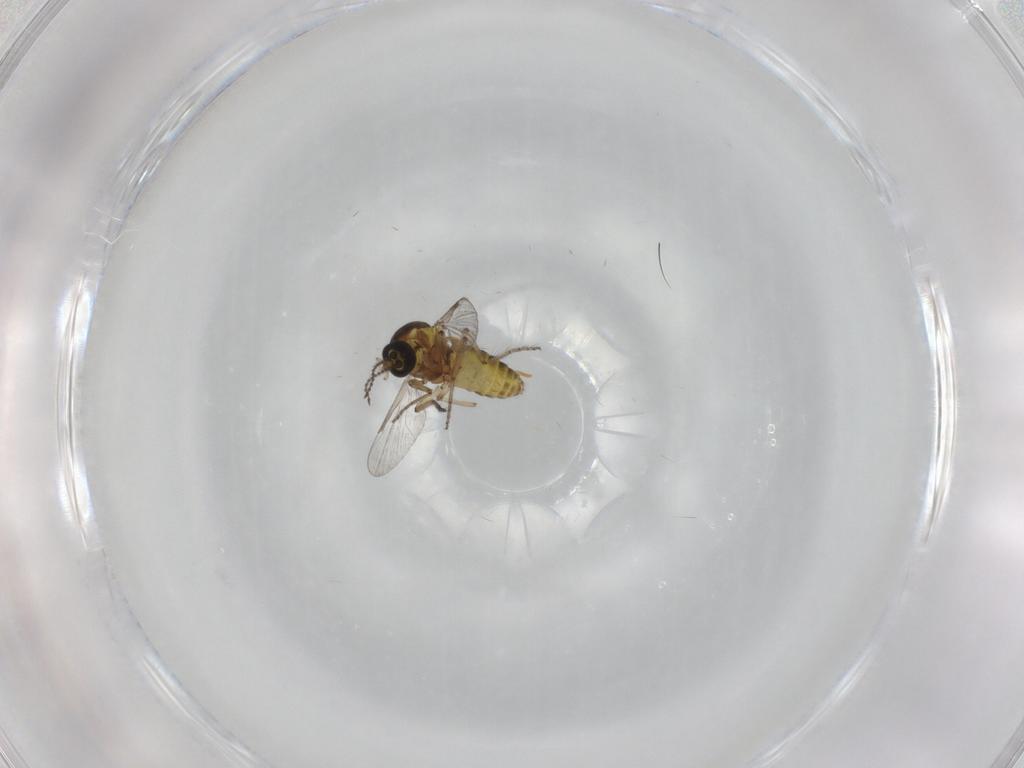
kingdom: Animalia
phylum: Arthropoda
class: Insecta
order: Diptera
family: Ceratopogonidae
